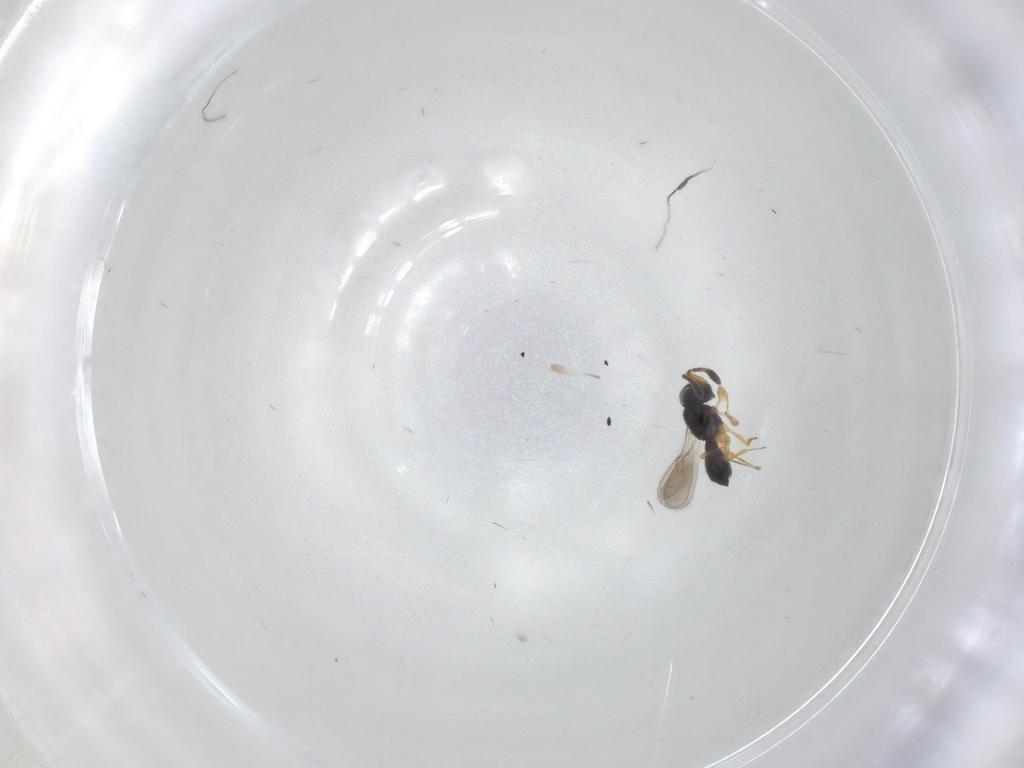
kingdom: Animalia
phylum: Arthropoda
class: Insecta
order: Hymenoptera
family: Scelionidae
